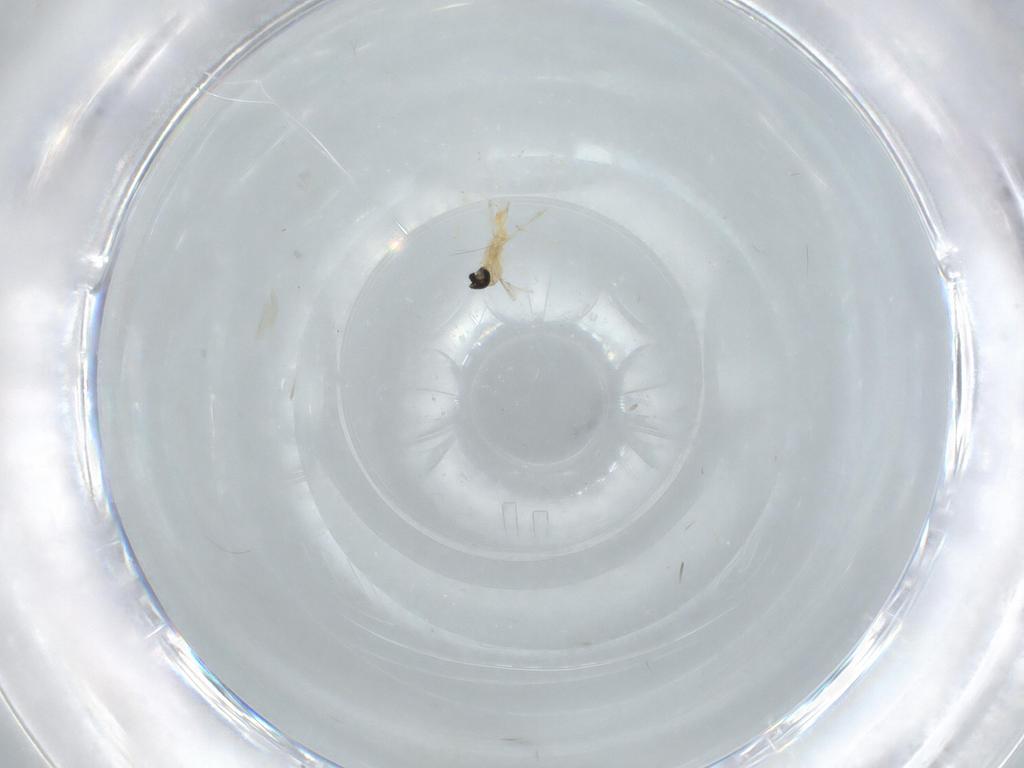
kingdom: Animalia
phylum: Arthropoda
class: Insecta
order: Diptera
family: Cecidomyiidae
